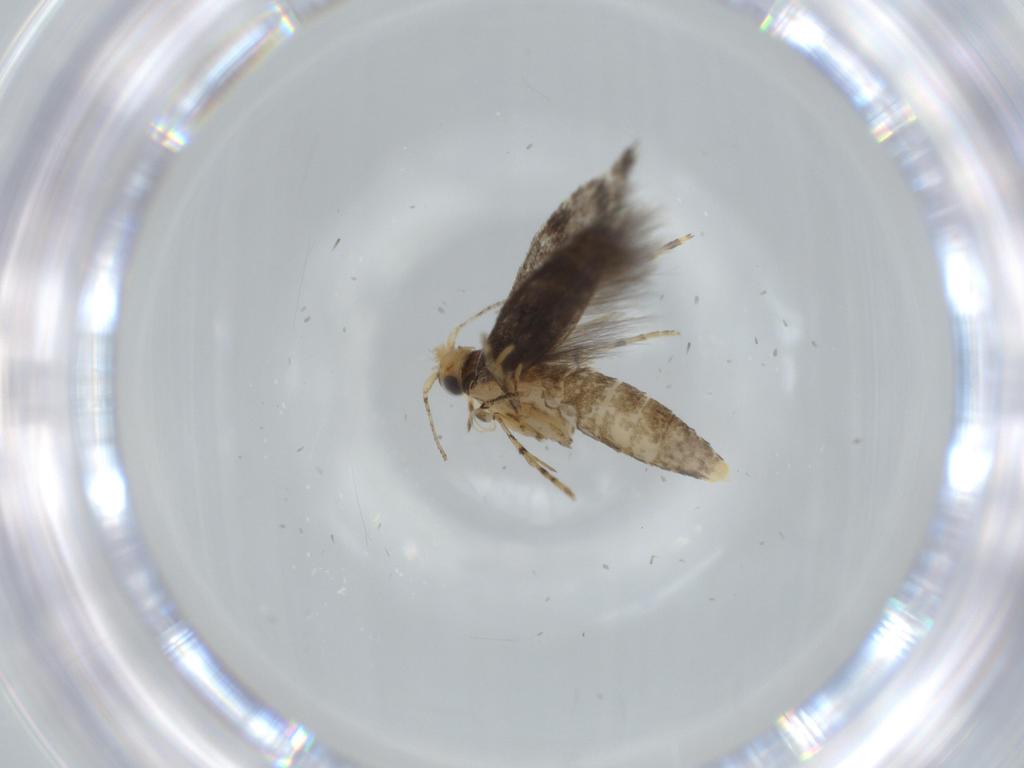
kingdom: Animalia
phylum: Arthropoda
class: Insecta
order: Lepidoptera
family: Argyresthiidae
